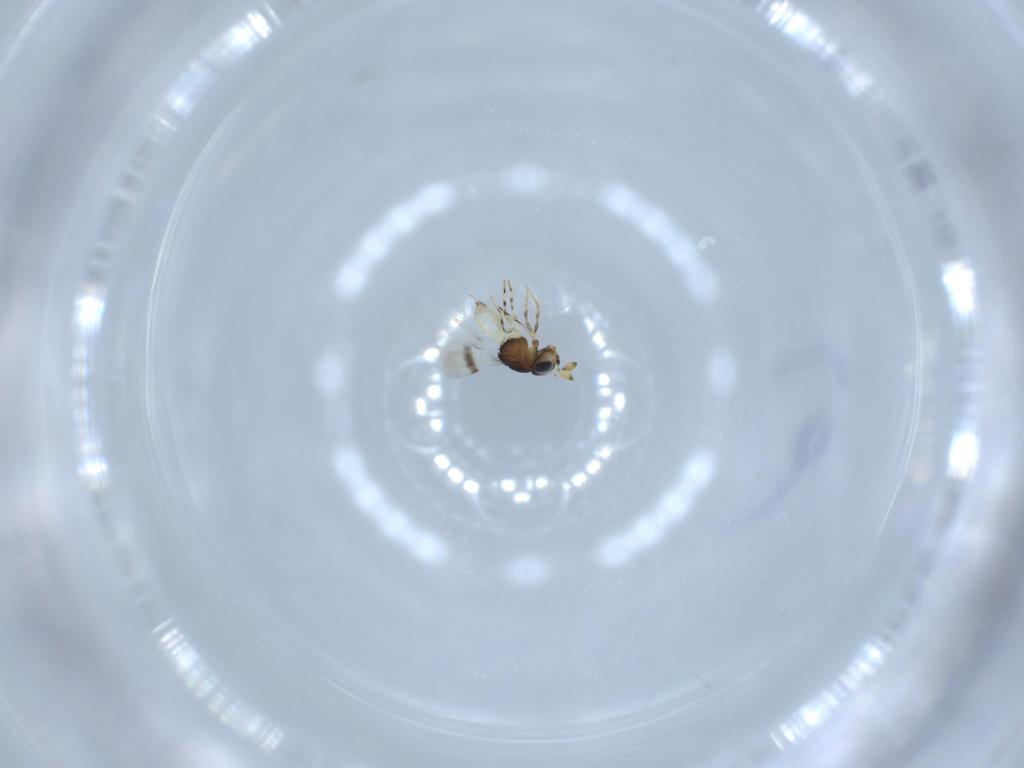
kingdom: Animalia
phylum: Arthropoda
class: Insecta
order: Hymenoptera
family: Scelionidae
